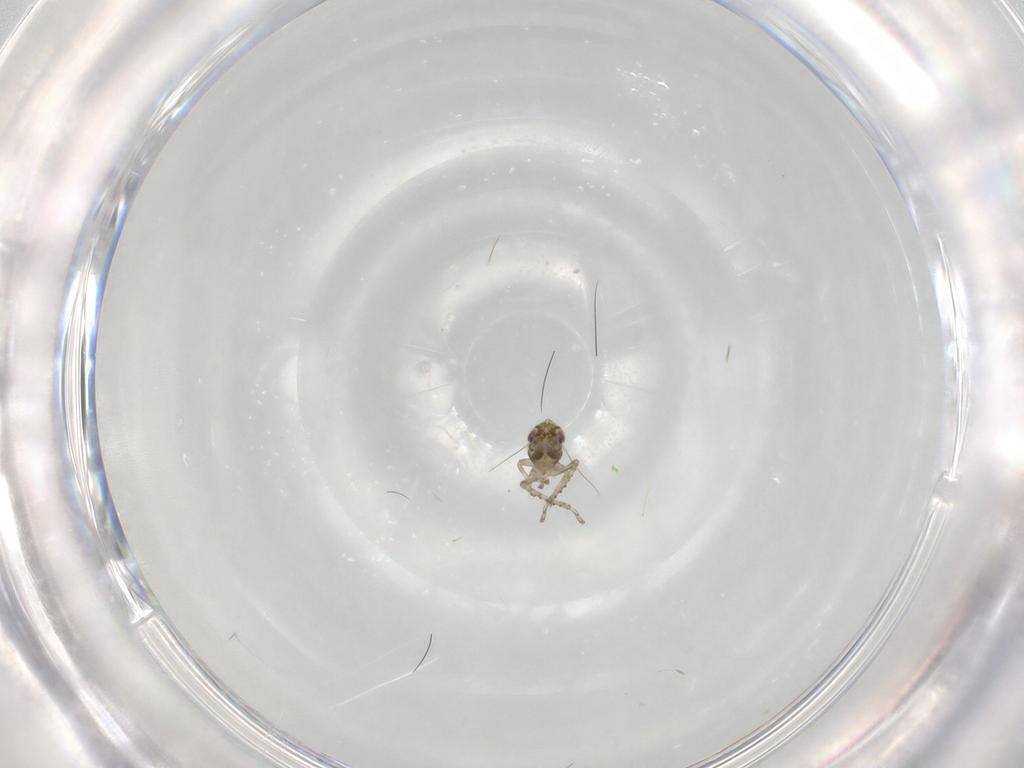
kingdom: Animalia
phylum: Arthropoda
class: Insecta
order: Hemiptera
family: Cicadellidae
